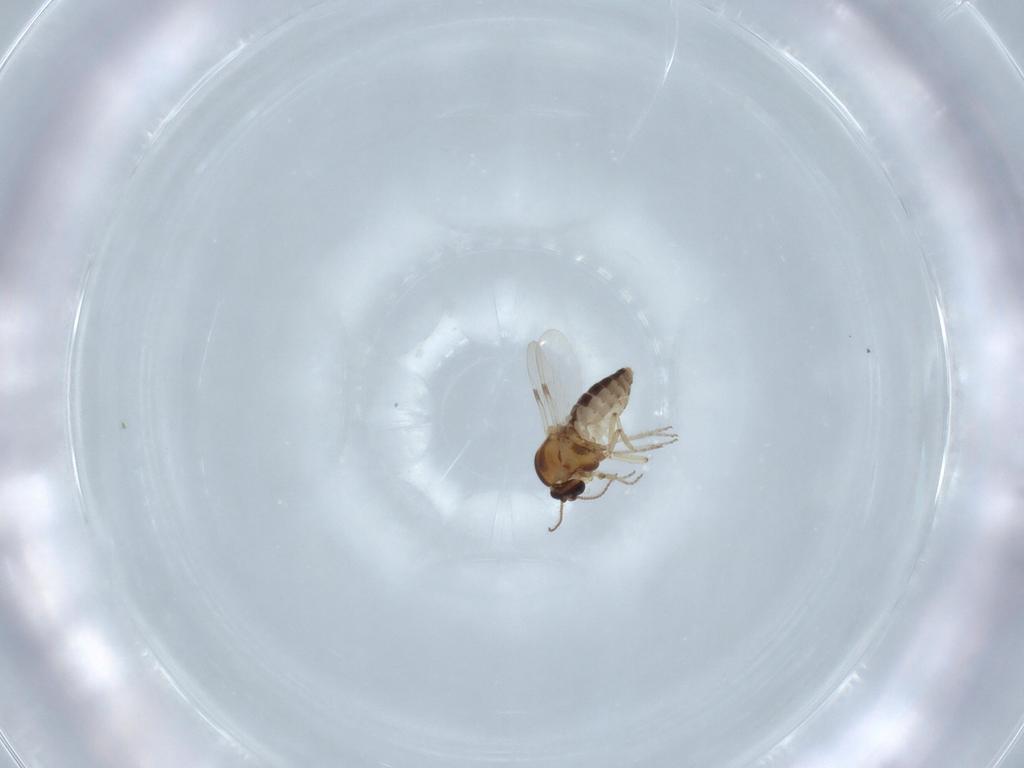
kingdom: Animalia
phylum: Arthropoda
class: Insecta
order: Diptera
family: Ceratopogonidae
